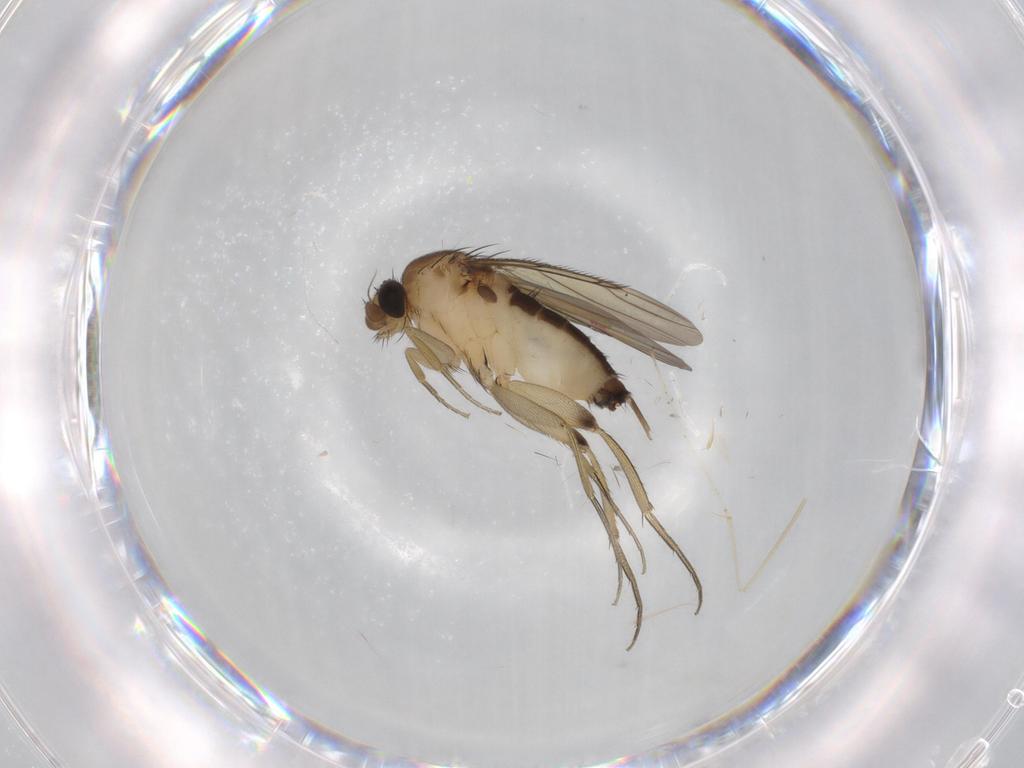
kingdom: Animalia
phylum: Arthropoda
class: Insecta
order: Diptera
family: Phoridae
